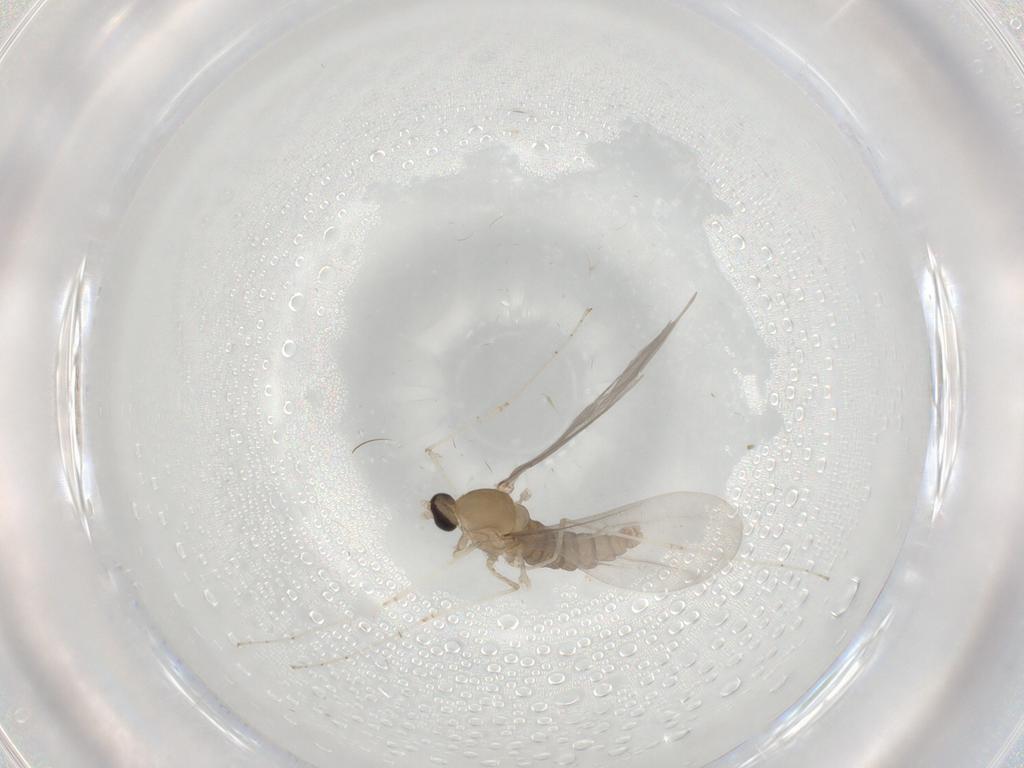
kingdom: Animalia
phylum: Arthropoda
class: Insecta
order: Diptera
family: Cecidomyiidae
